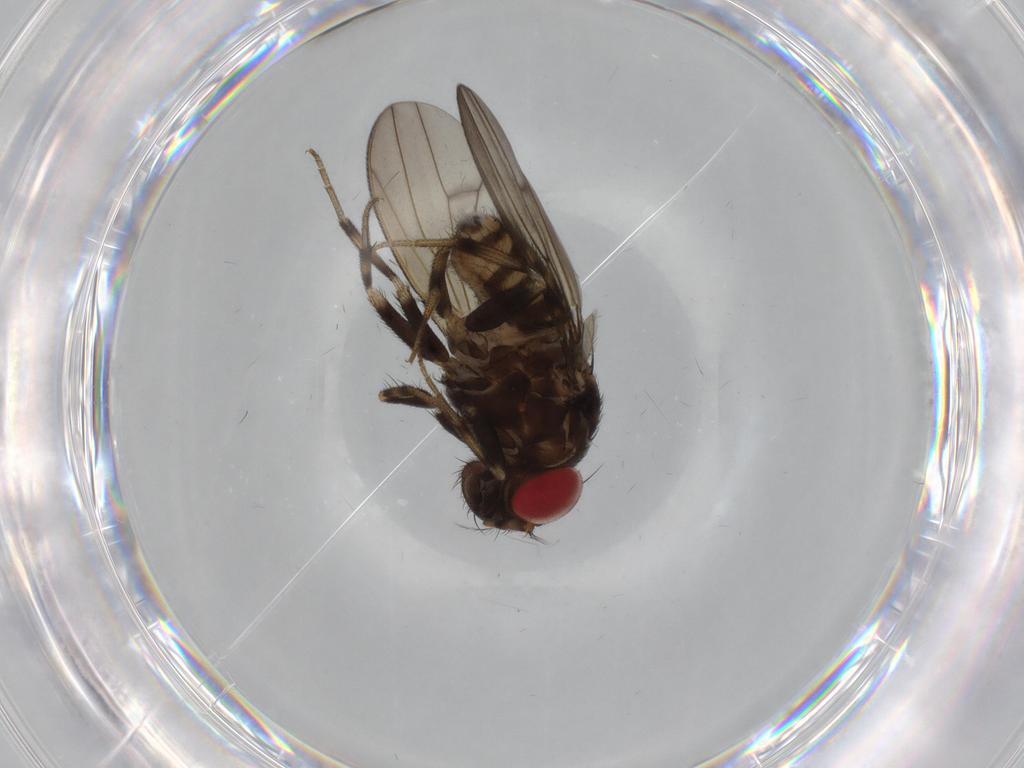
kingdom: Animalia
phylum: Arthropoda
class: Insecta
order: Diptera
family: Drosophilidae
